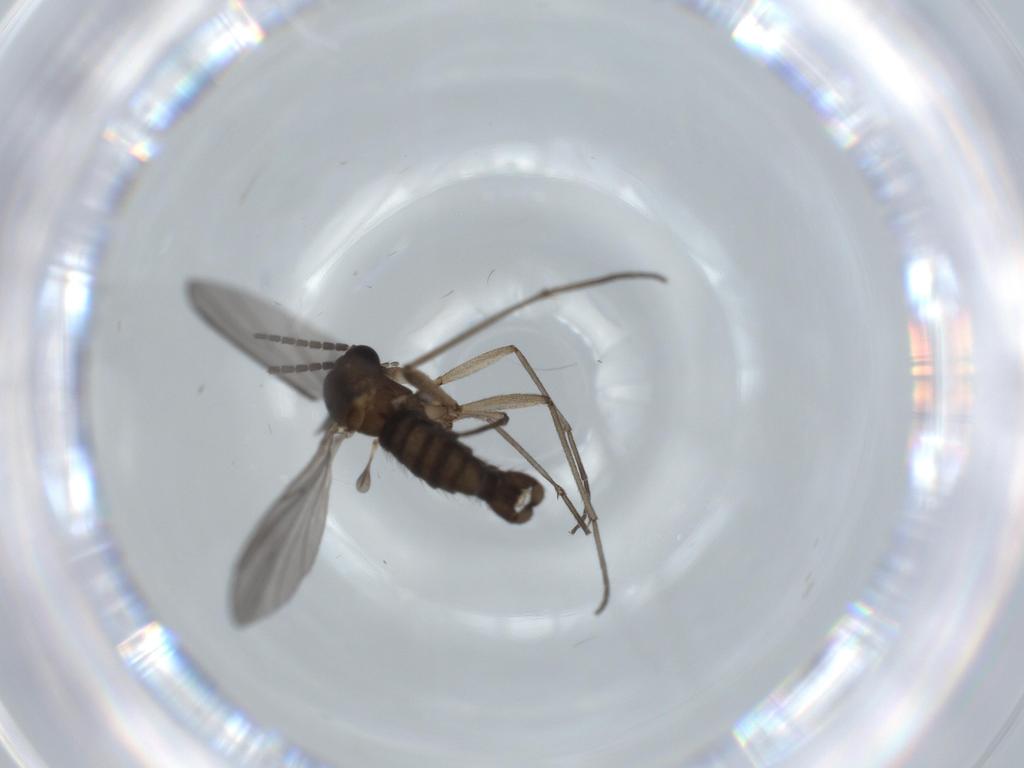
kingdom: Animalia
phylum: Arthropoda
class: Insecta
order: Diptera
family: Sciaridae
